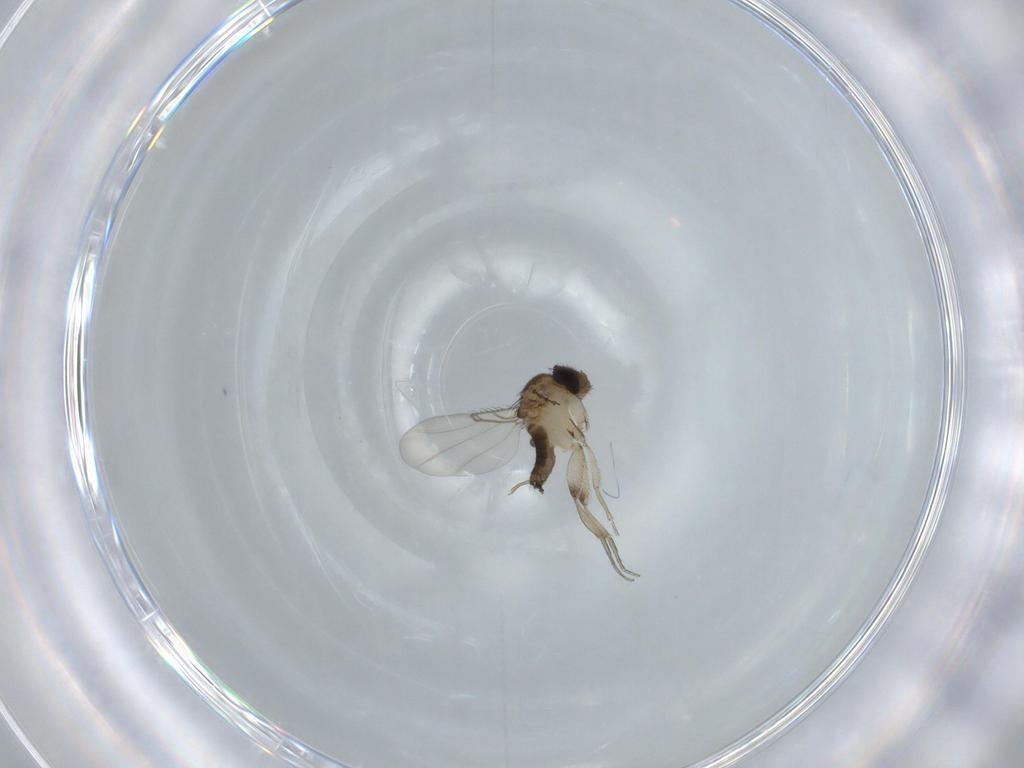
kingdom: Animalia
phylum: Arthropoda
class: Insecta
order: Diptera
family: Phoridae
